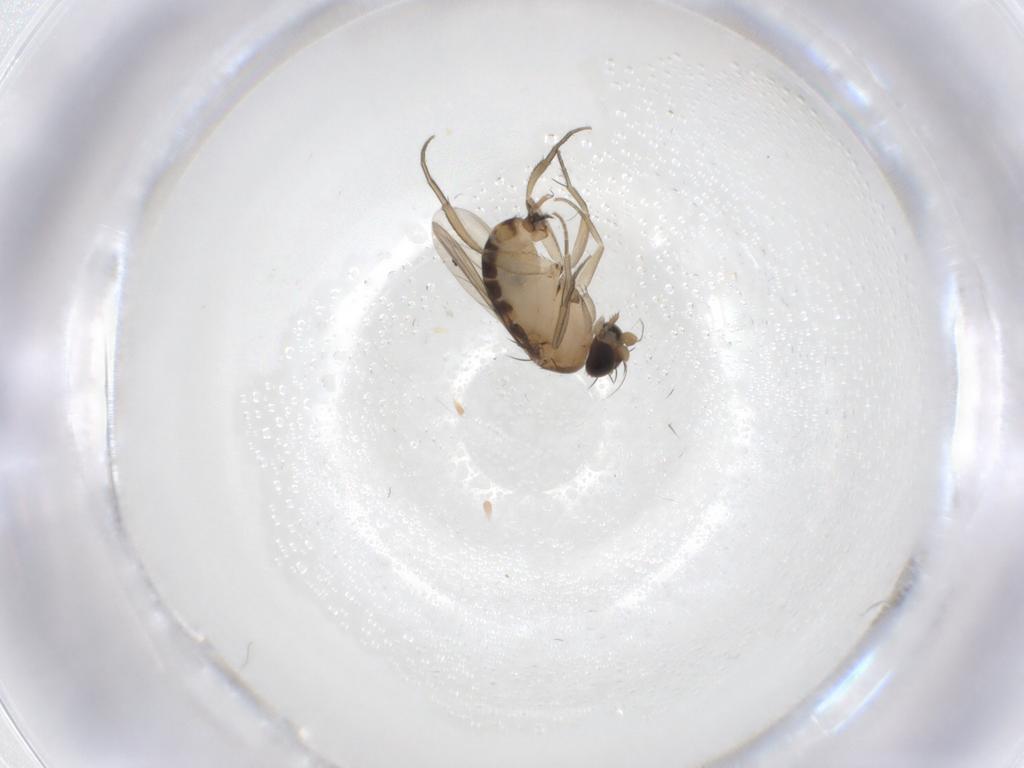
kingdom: Animalia
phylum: Arthropoda
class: Insecta
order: Diptera
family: Phoridae
